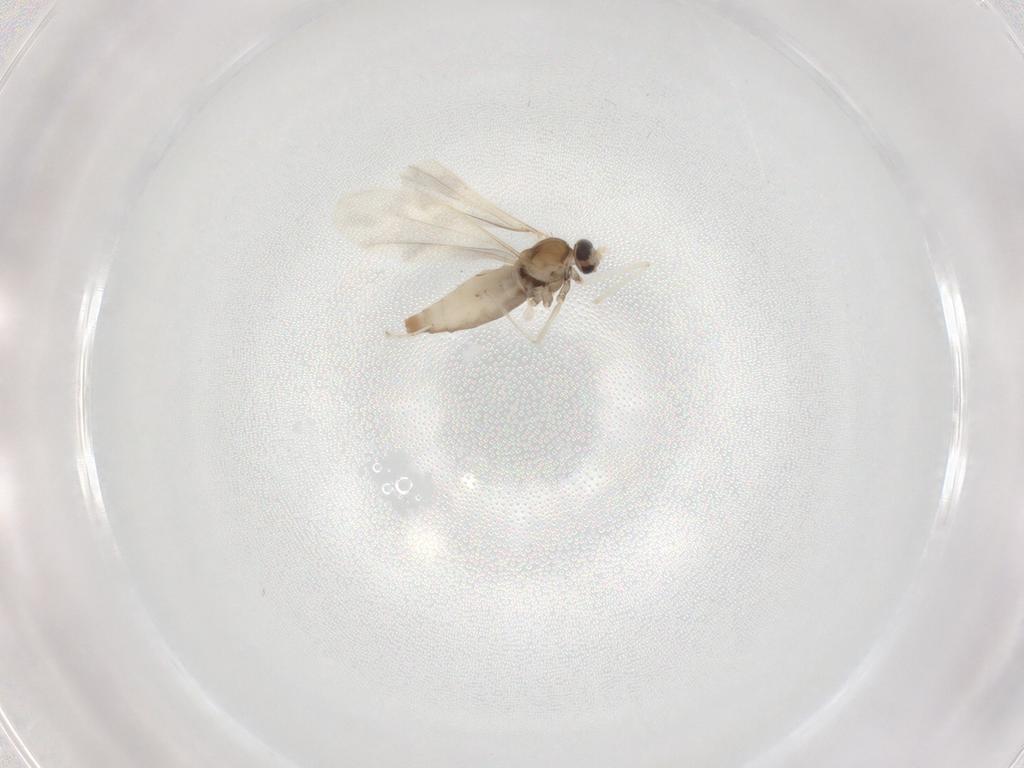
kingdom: Animalia
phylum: Arthropoda
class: Insecta
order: Diptera
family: Cecidomyiidae
